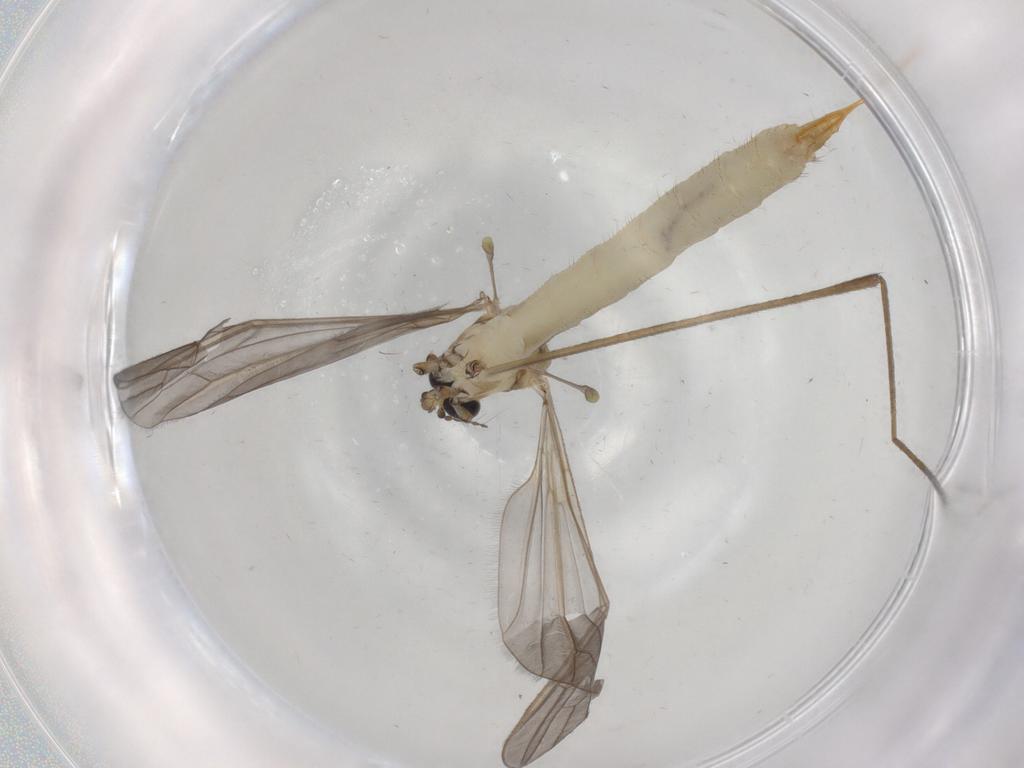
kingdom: Animalia
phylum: Arthropoda
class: Insecta
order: Diptera
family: Limoniidae
